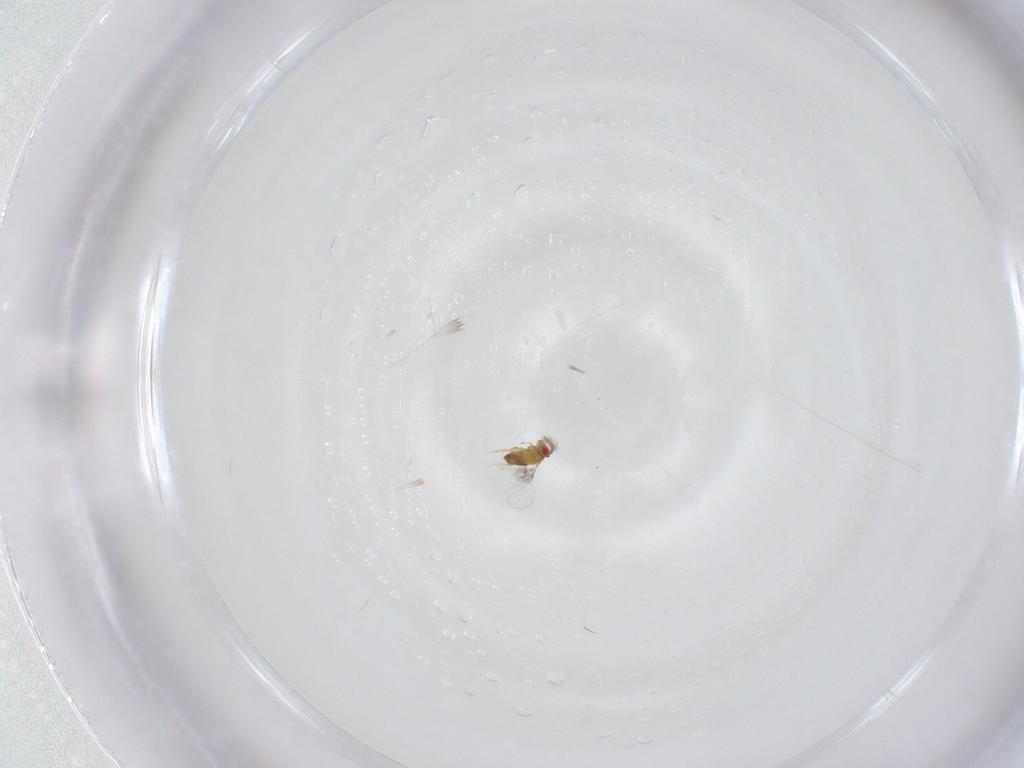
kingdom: Animalia
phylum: Arthropoda
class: Insecta
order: Hymenoptera
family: Trichogrammatidae
